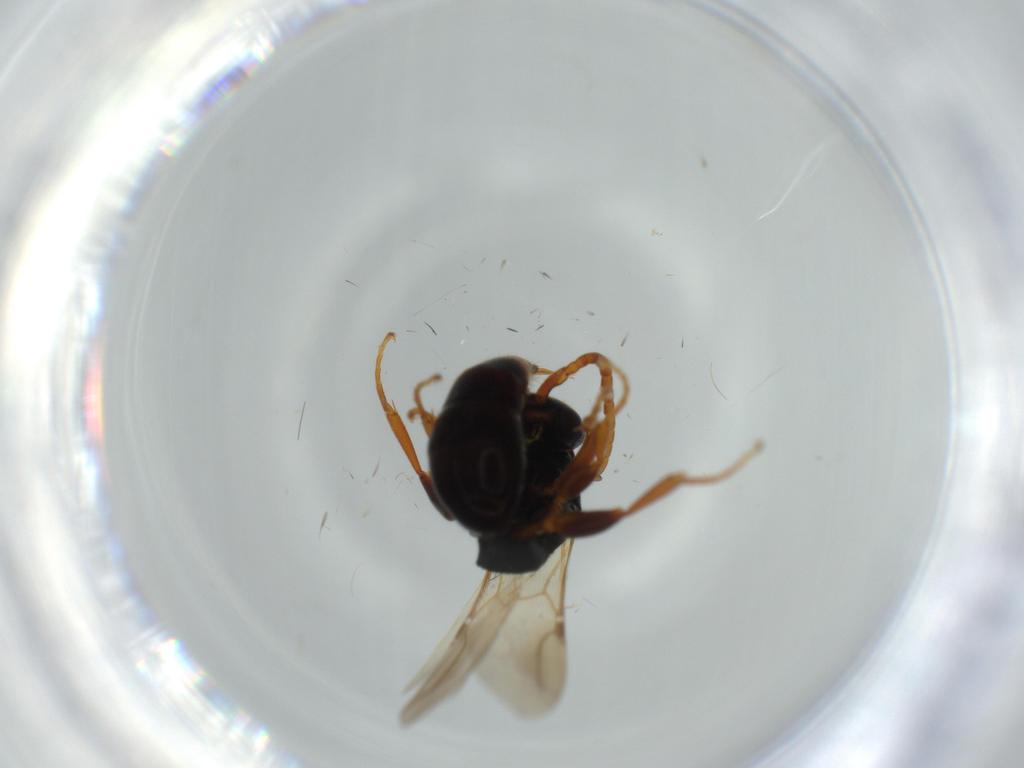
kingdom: Animalia
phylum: Arthropoda
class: Insecta
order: Hymenoptera
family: Bethylidae
